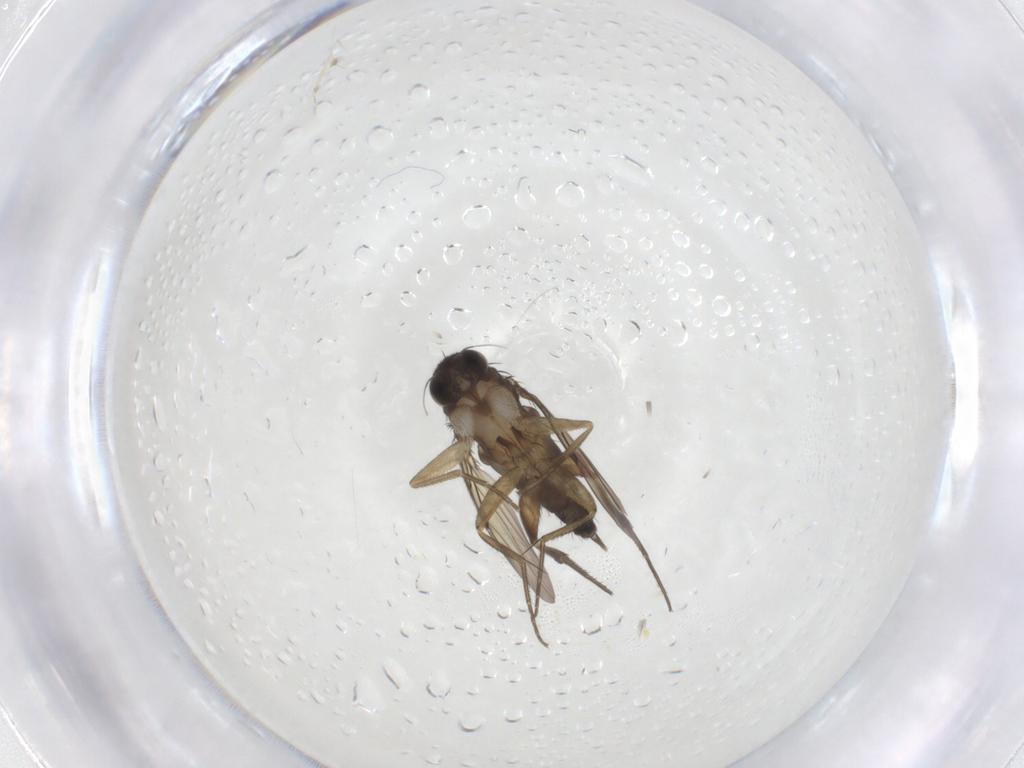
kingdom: Animalia
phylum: Arthropoda
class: Insecta
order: Diptera
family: Phoridae
